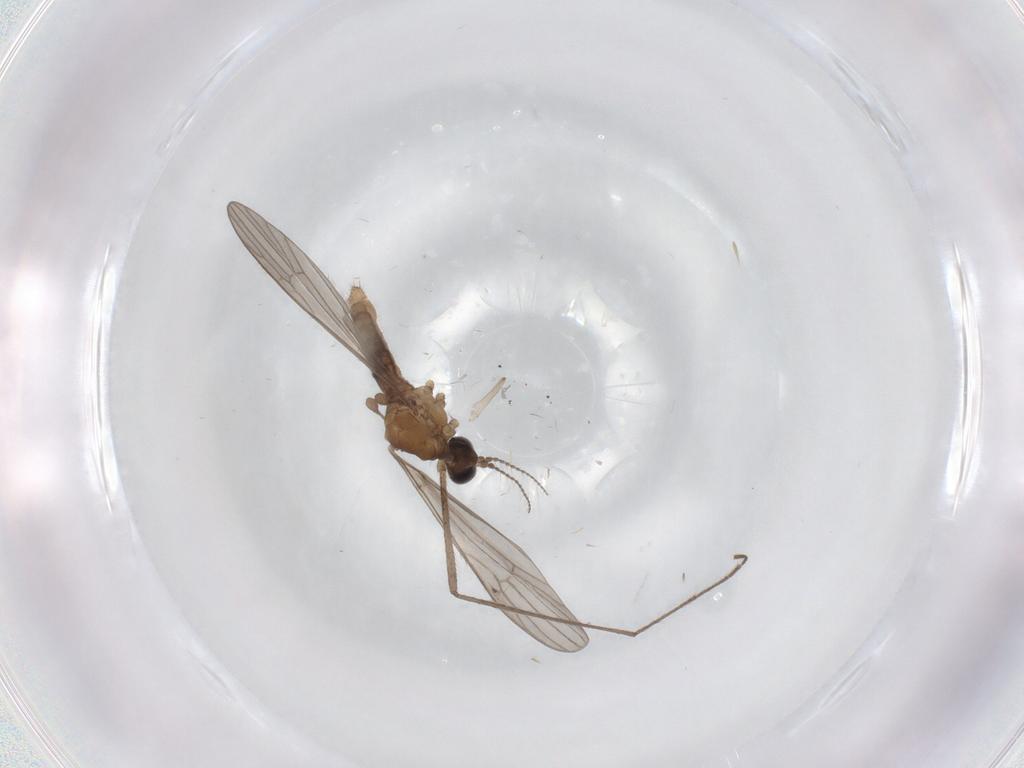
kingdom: Animalia
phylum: Arthropoda
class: Insecta
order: Diptera
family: Cecidomyiidae
